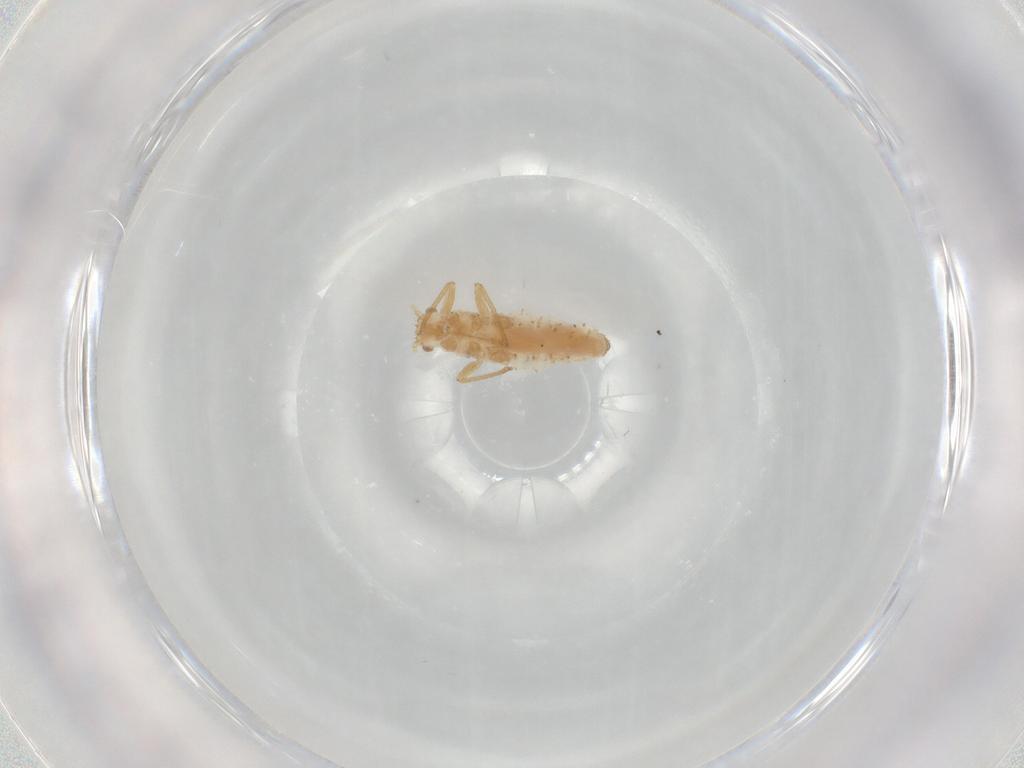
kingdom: Animalia
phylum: Arthropoda
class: Insecta
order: Hemiptera
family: Aphididae
